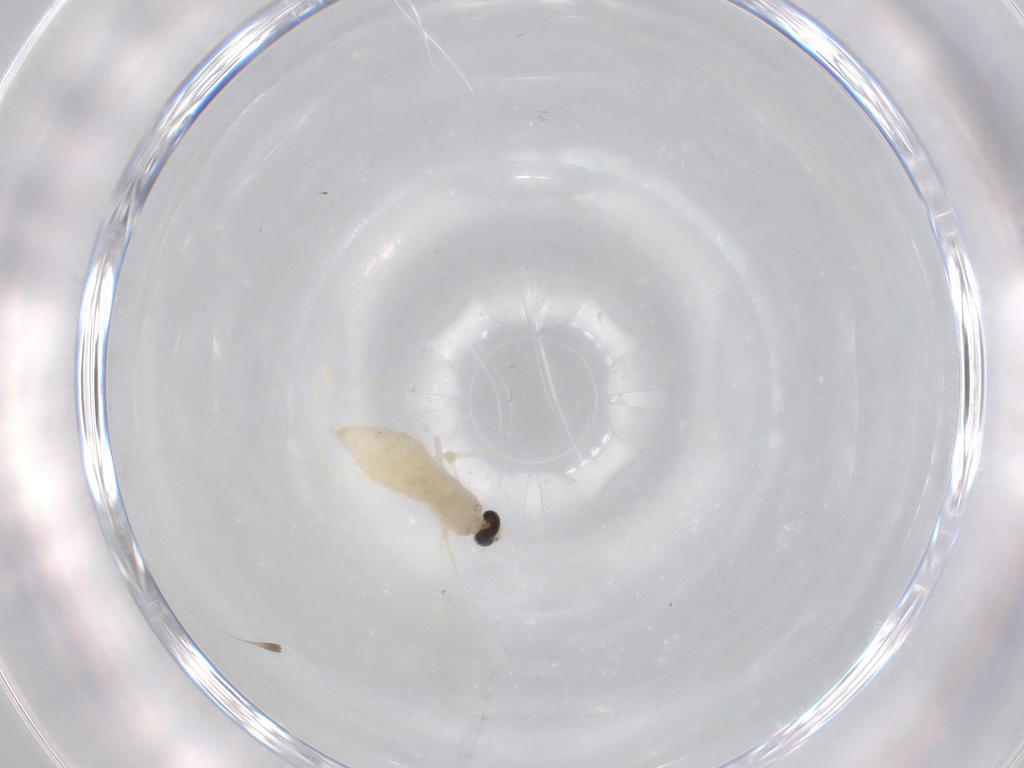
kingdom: Animalia
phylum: Arthropoda
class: Insecta
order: Diptera
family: Cecidomyiidae
